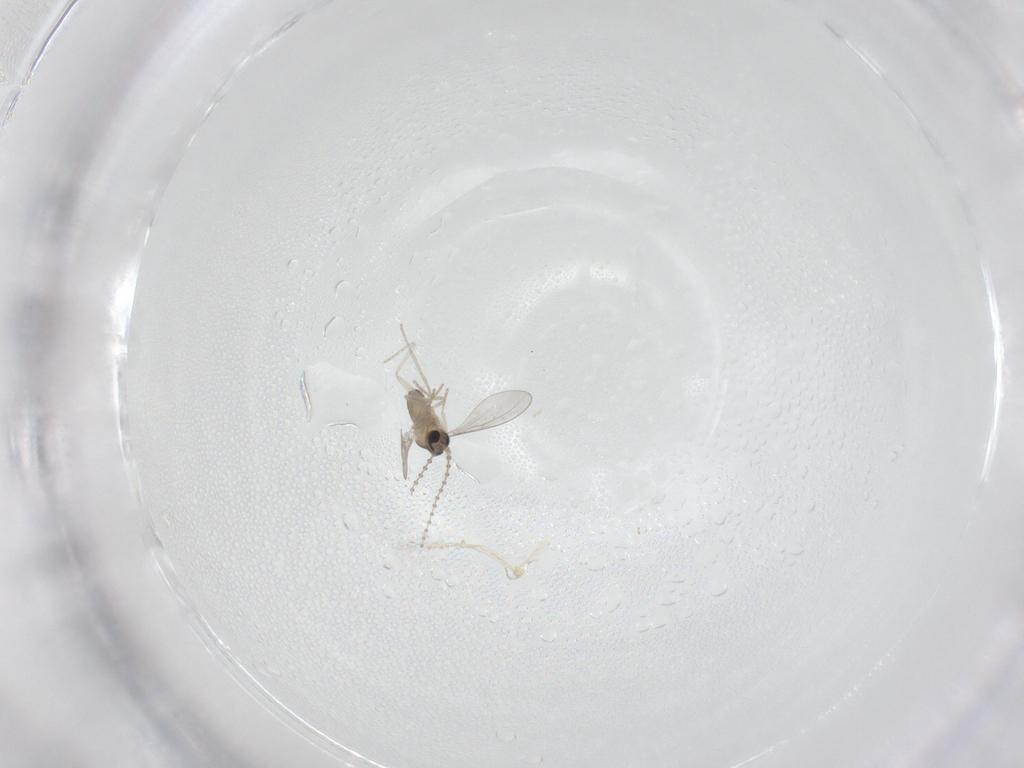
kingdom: Animalia
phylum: Arthropoda
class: Insecta
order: Diptera
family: Cecidomyiidae
